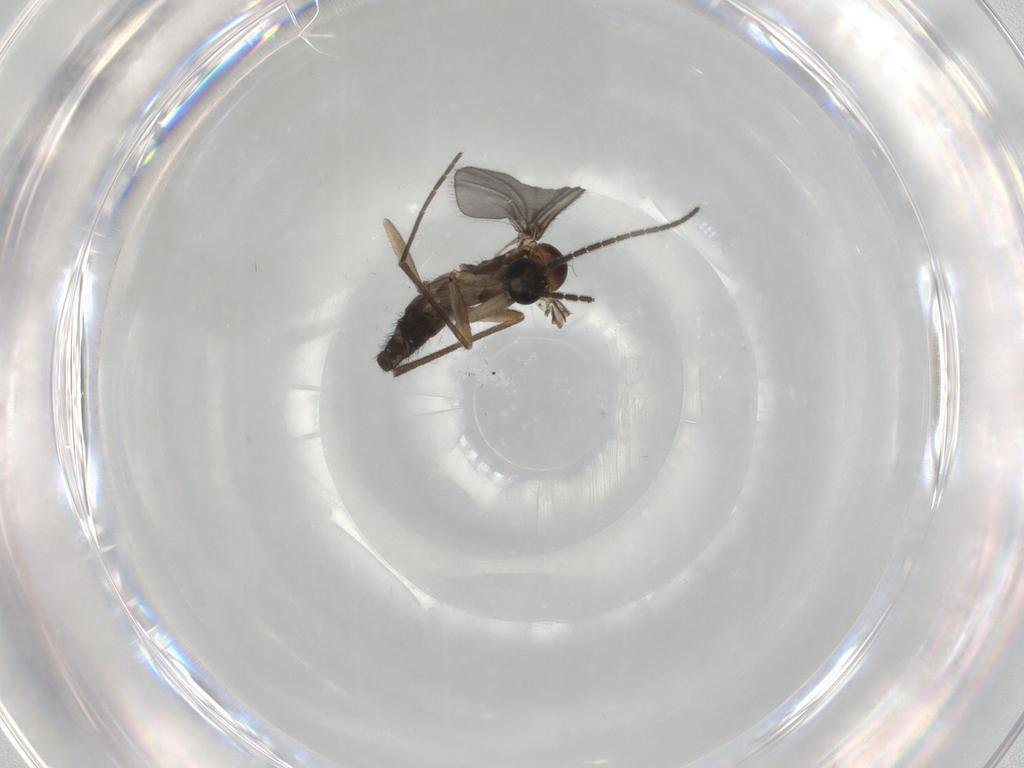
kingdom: Animalia
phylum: Arthropoda
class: Insecta
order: Diptera
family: Sciaridae
